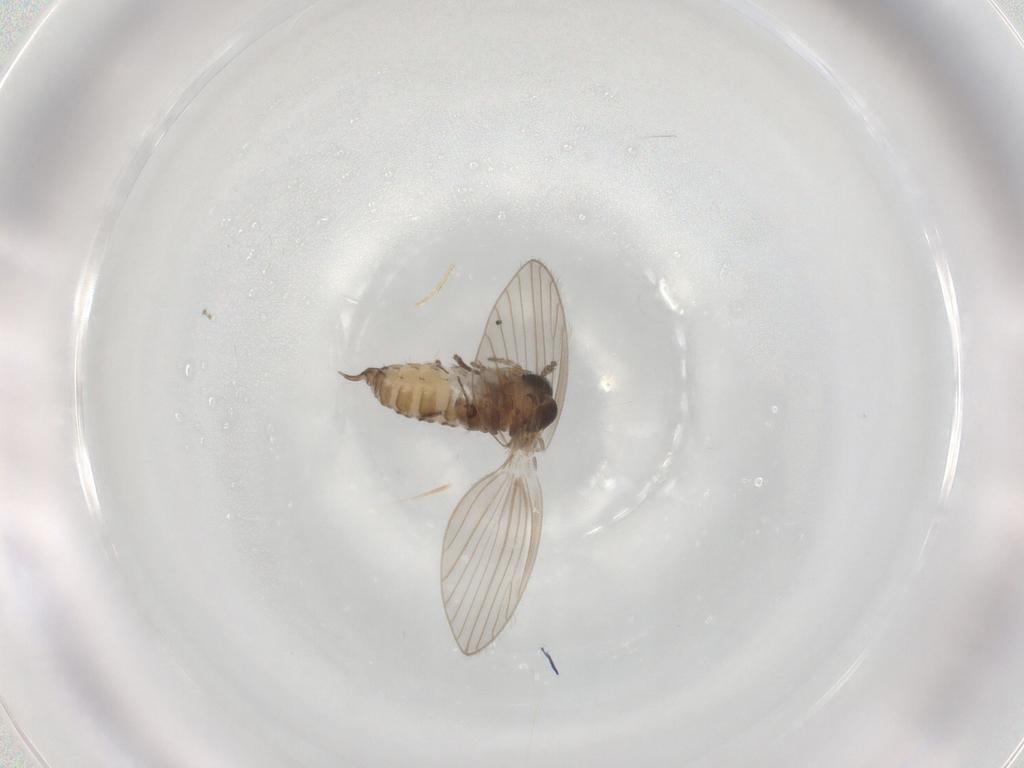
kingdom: Animalia
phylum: Arthropoda
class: Insecta
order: Diptera
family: Psychodidae
